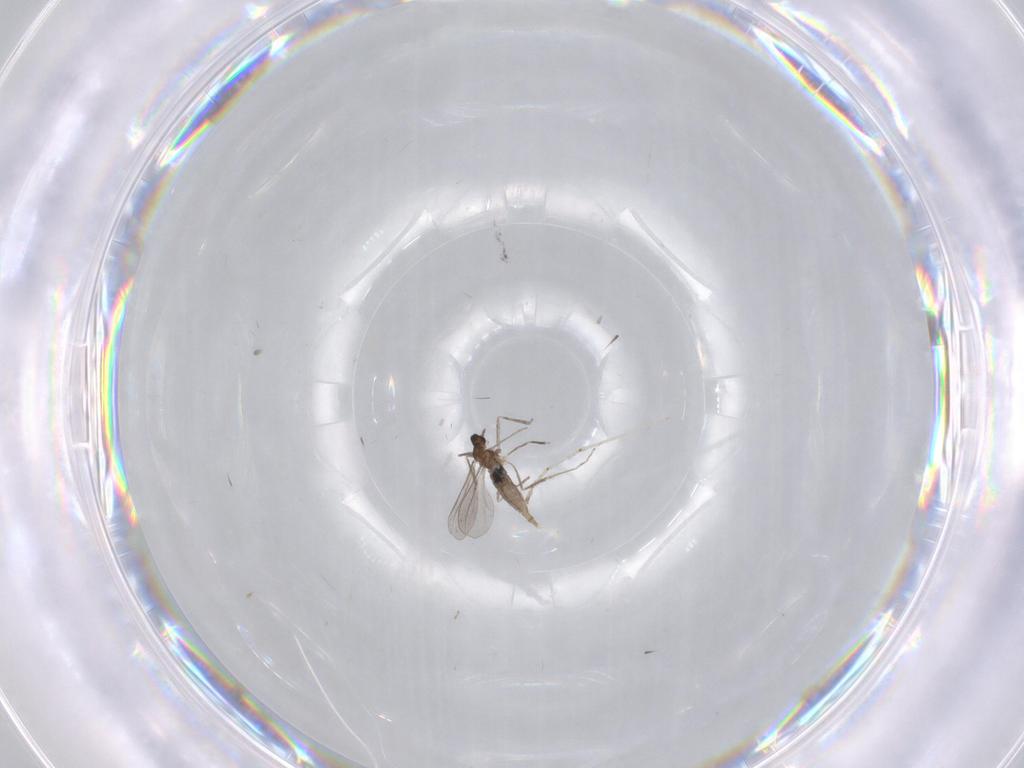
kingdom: Animalia
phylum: Arthropoda
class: Insecta
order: Diptera
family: Cecidomyiidae
